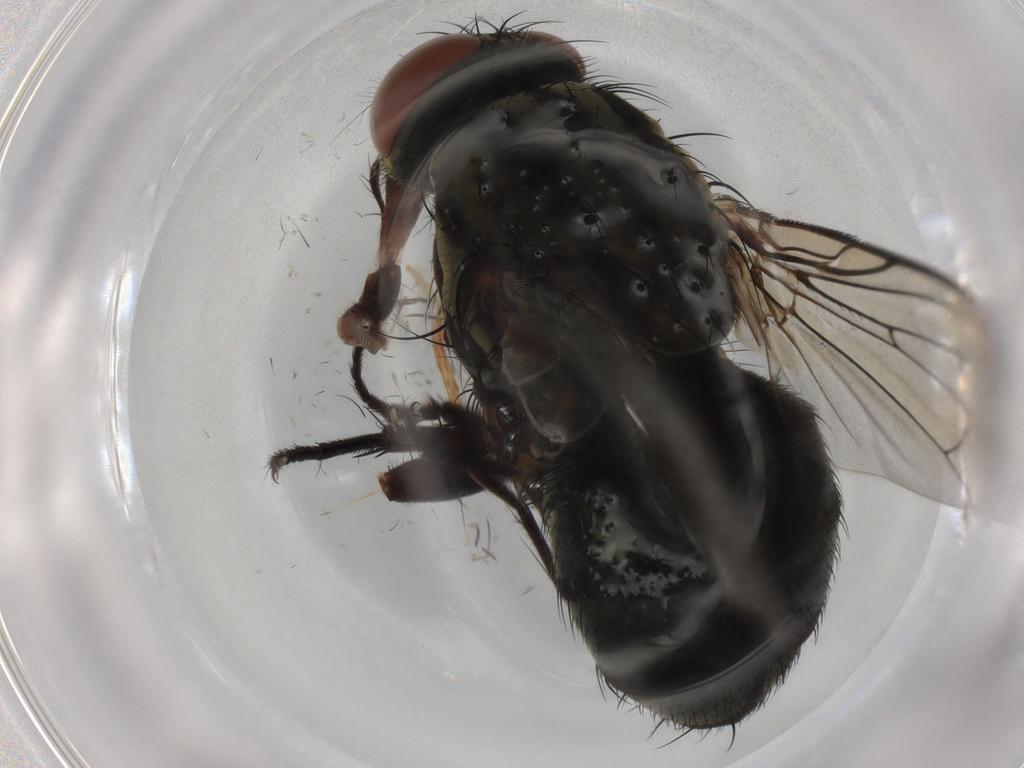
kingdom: Animalia
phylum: Arthropoda
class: Insecta
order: Diptera
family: Sarcophagidae
